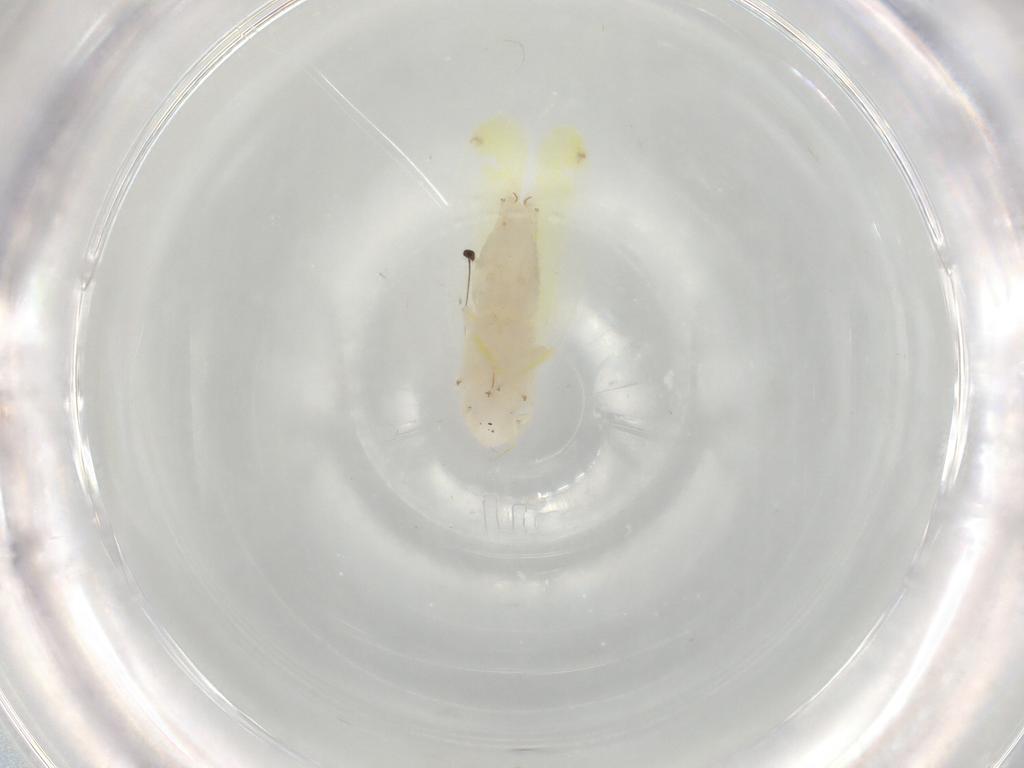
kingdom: Animalia
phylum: Arthropoda
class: Insecta
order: Hemiptera
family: Cicadellidae
